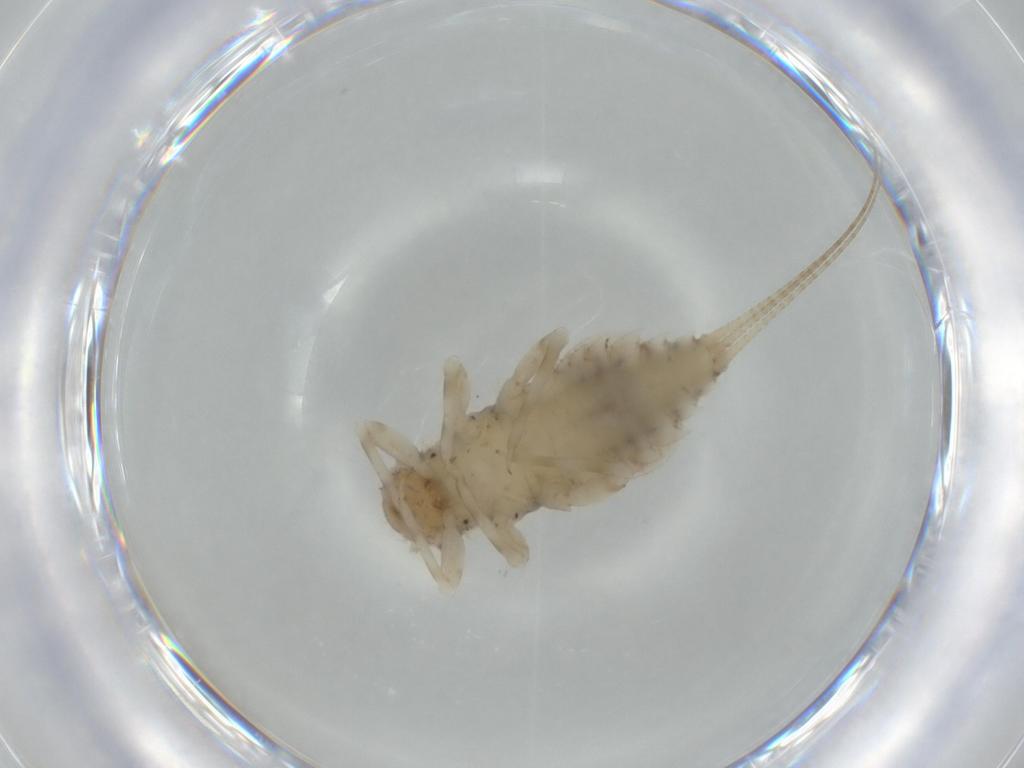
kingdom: Animalia
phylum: Arthropoda
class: Insecta
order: Ephemeroptera
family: Caenidae
